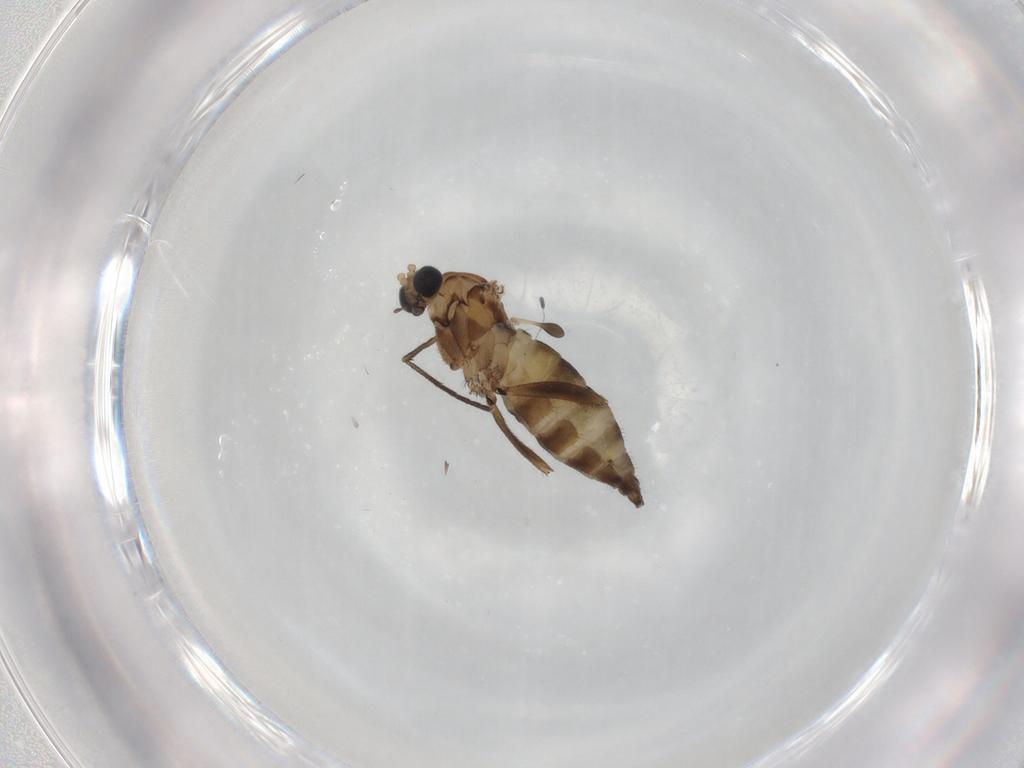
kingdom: Animalia
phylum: Arthropoda
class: Insecta
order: Diptera
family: Sciaridae
